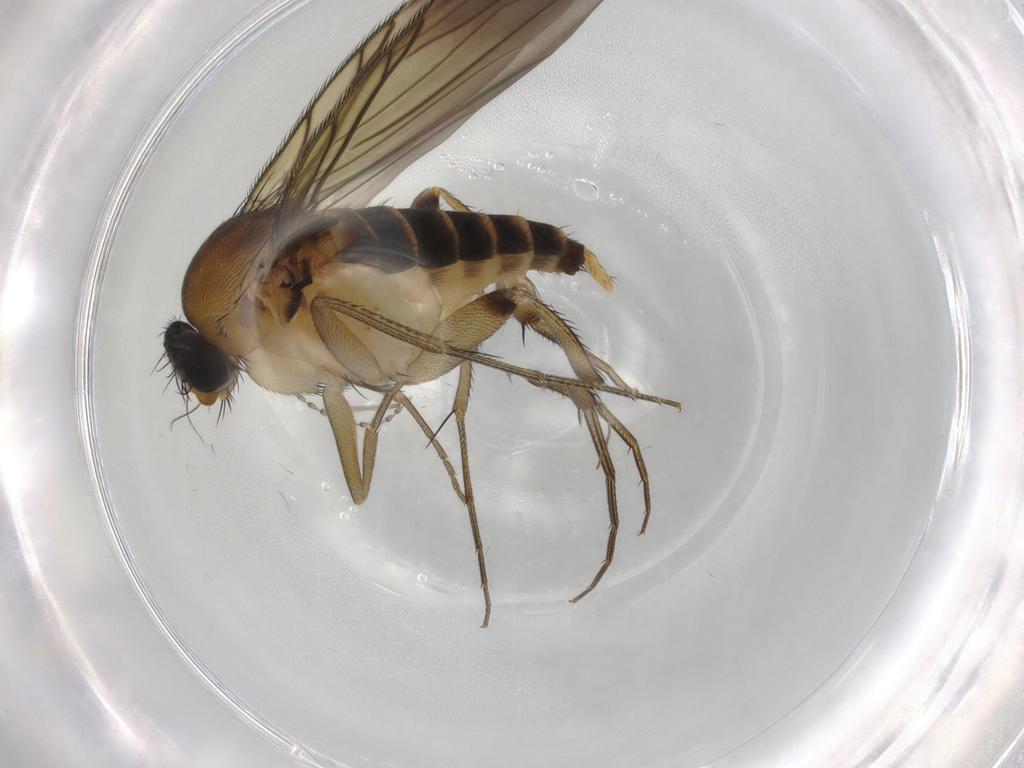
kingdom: Animalia
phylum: Arthropoda
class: Insecta
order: Diptera
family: Phoridae
